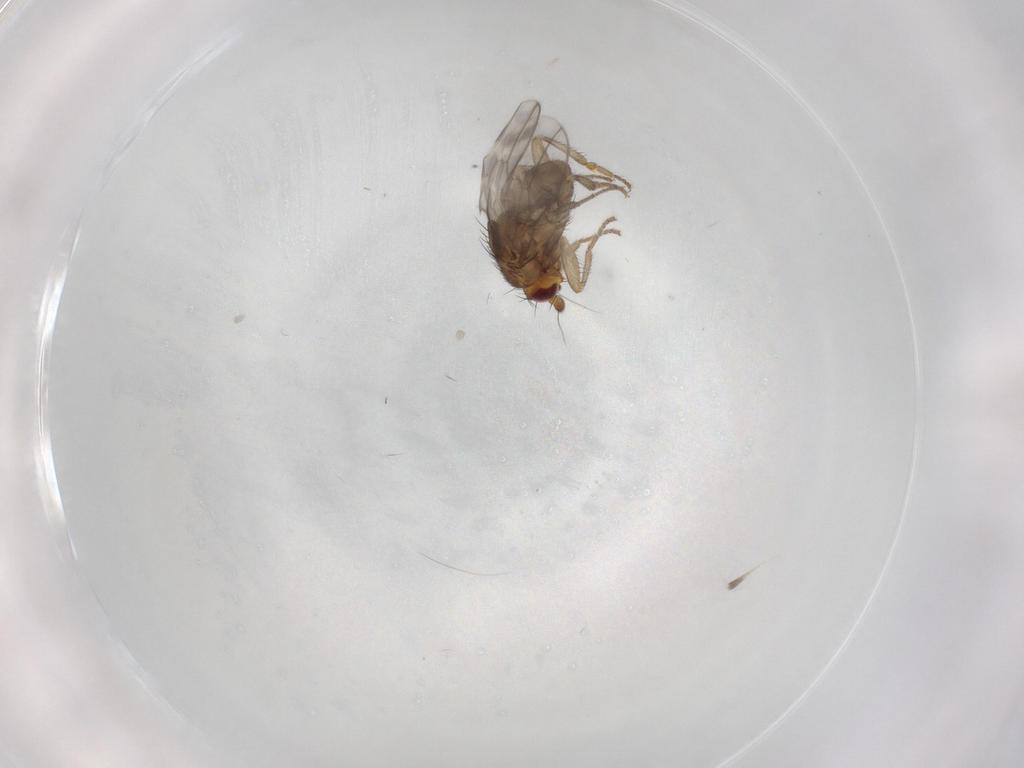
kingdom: Animalia
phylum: Arthropoda
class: Insecta
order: Diptera
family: Sphaeroceridae
